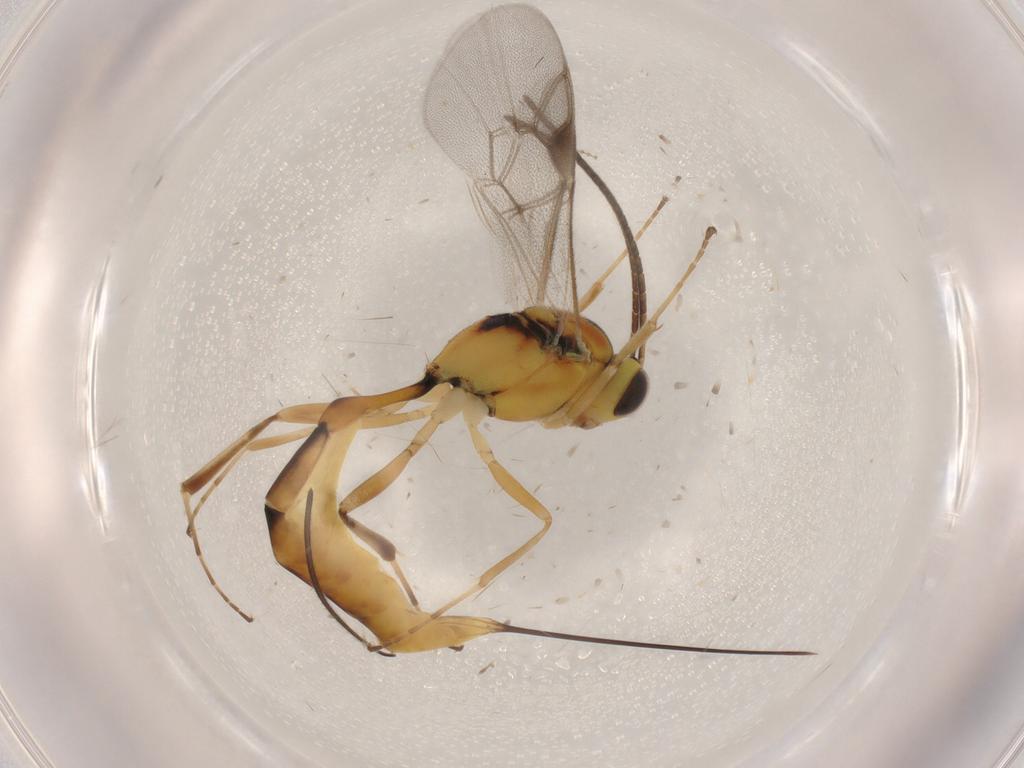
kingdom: Animalia
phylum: Arthropoda
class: Insecta
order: Hymenoptera
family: Ichneumonidae
